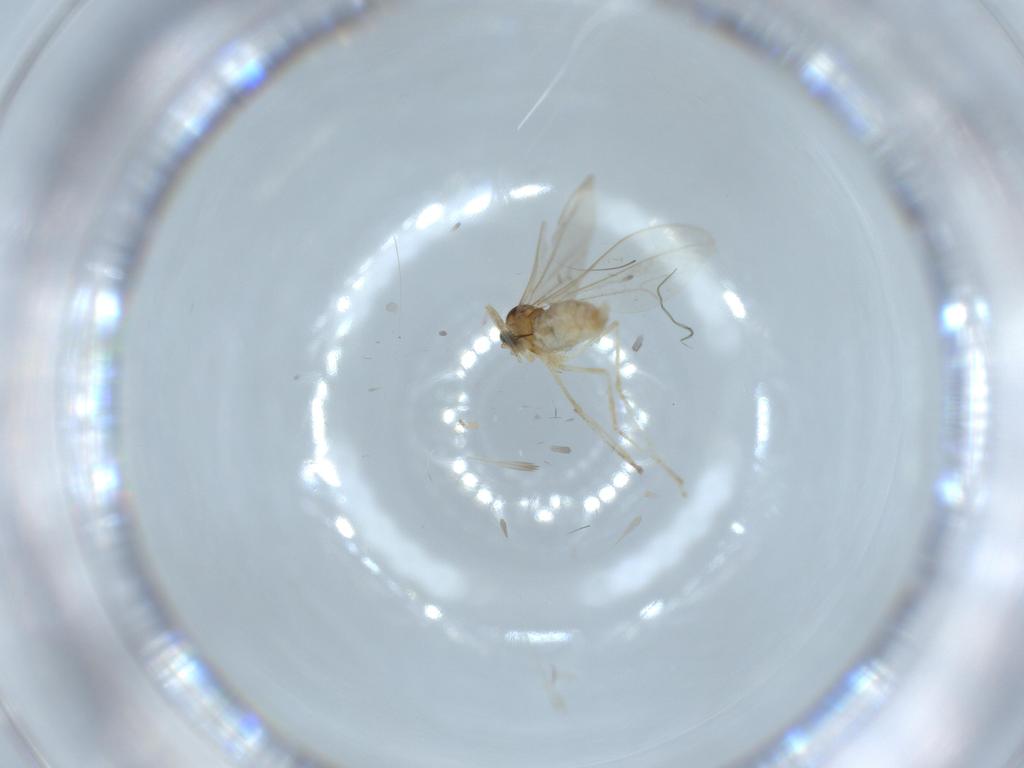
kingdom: Animalia
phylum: Arthropoda
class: Insecta
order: Diptera
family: Cecidomyiidae
